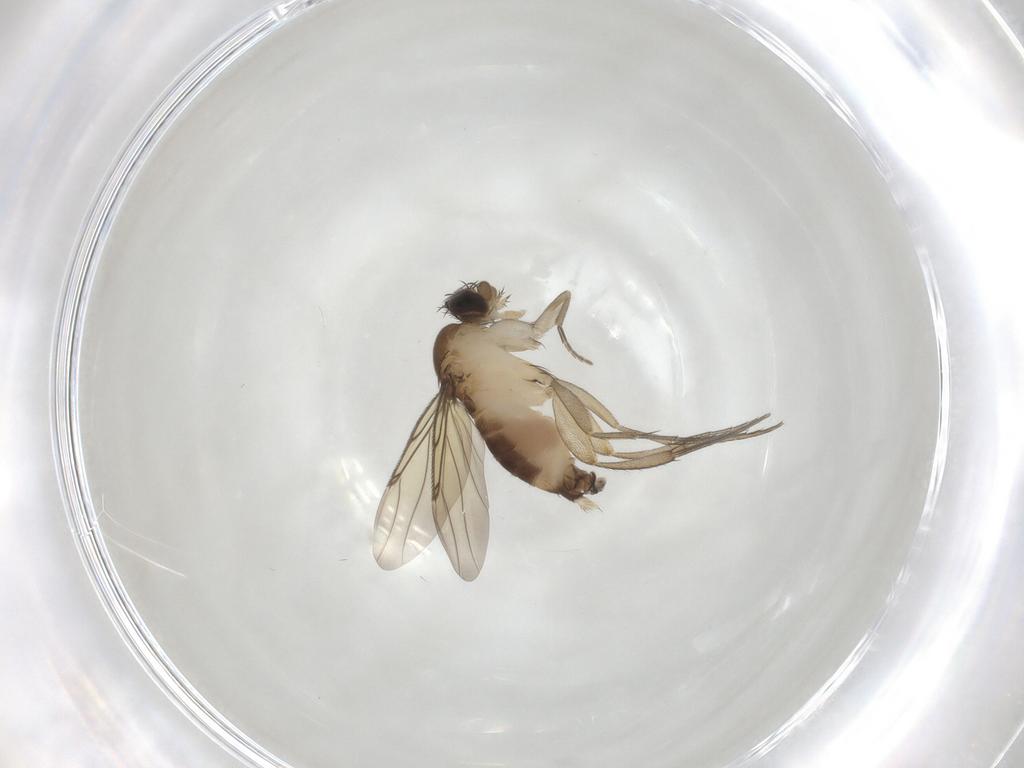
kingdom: Animalia
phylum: Arthropoda
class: Insecta
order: Diptera
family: Phoridae
